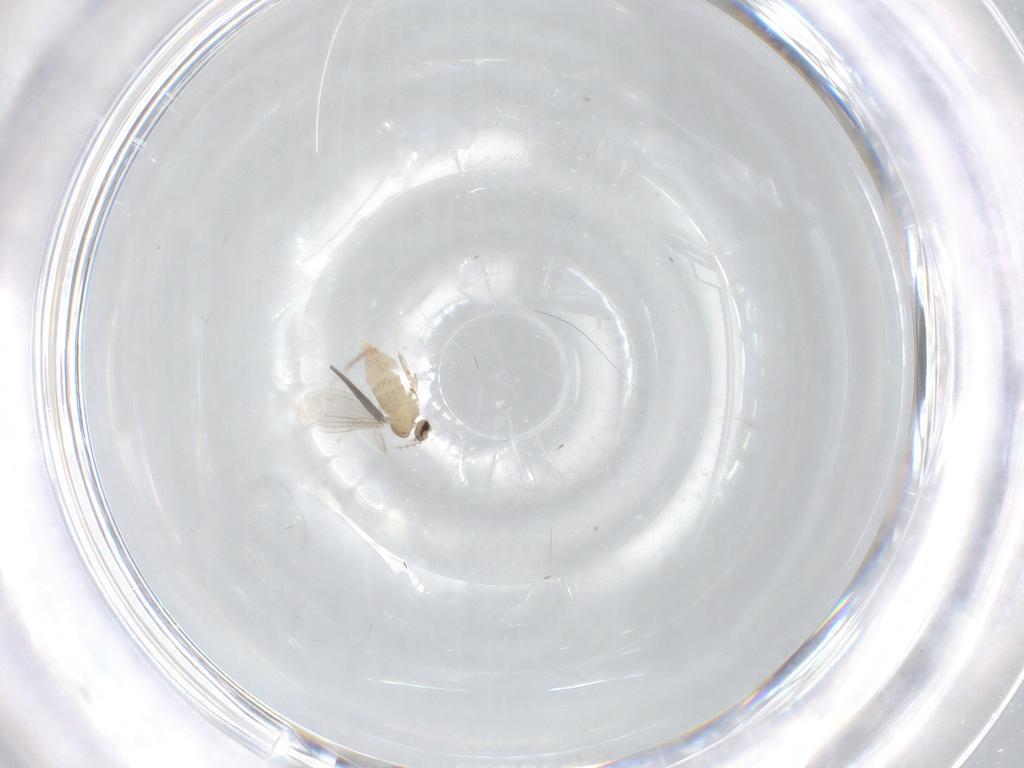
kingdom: Animalia
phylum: Arthropoda
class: Insecta
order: Diptera
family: Cecidomyiidae
